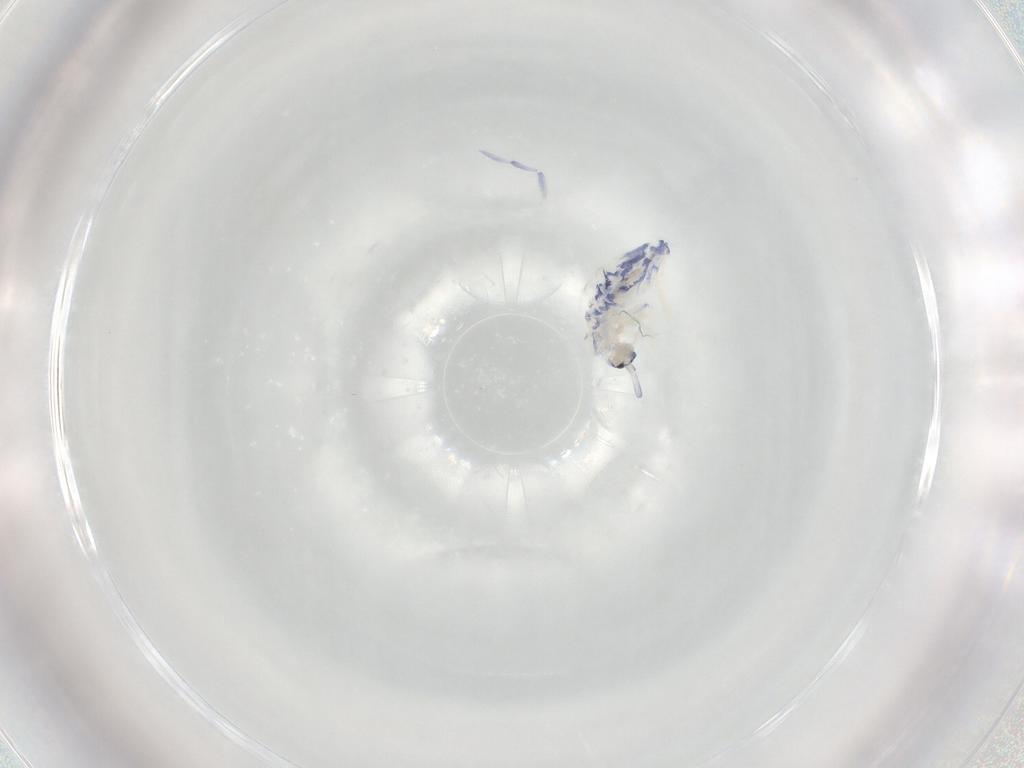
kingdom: Animalia
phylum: Arthropoda
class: Collembola
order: Entomobryomorpha
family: Entomobryidae
